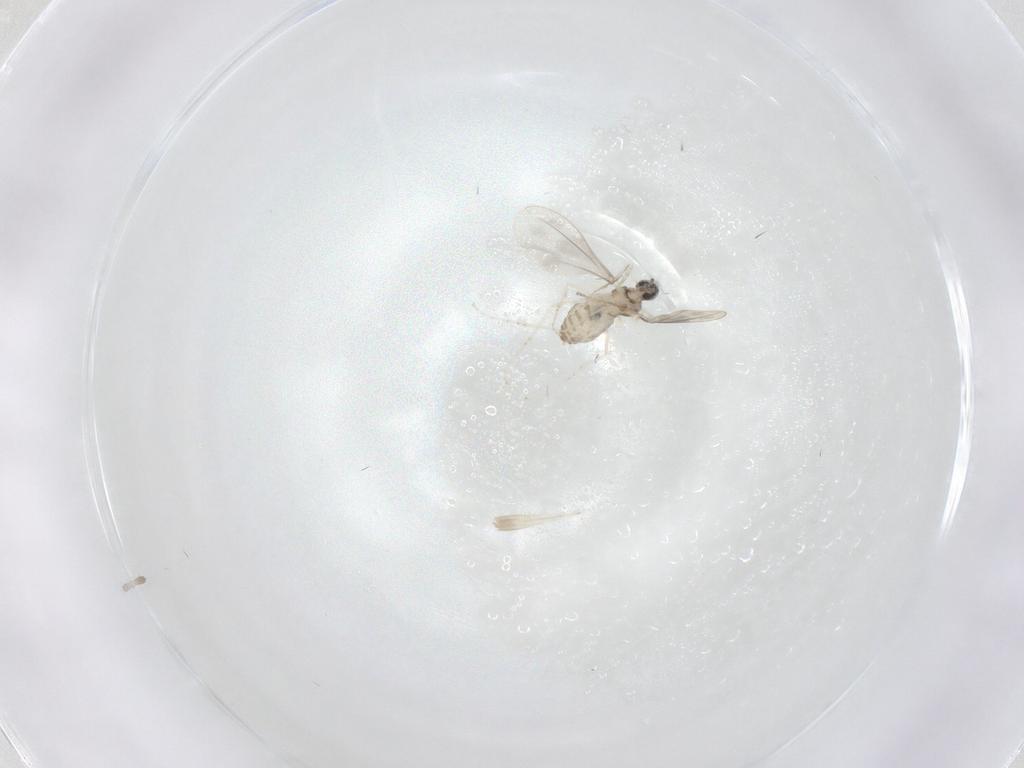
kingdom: Animalia
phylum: Arthropoda
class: Insecta
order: Diptera
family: Cecidomyiidae
